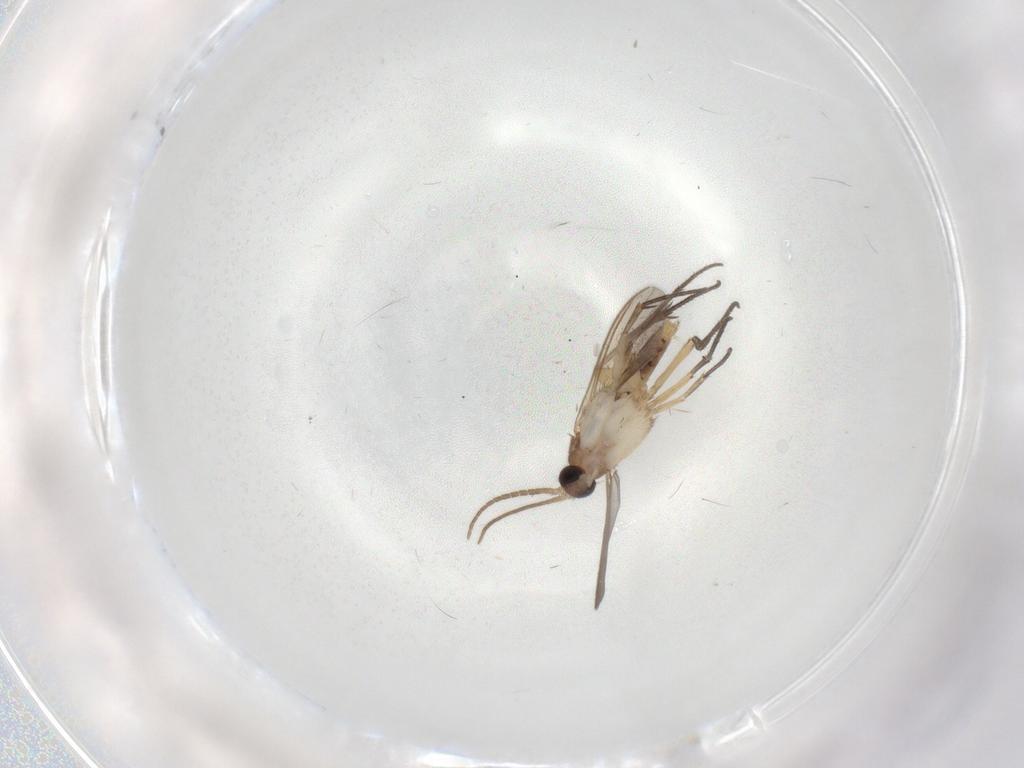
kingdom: Animalia
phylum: Arthropoda
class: Insecta
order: Diptera
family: Mycetophilidae
